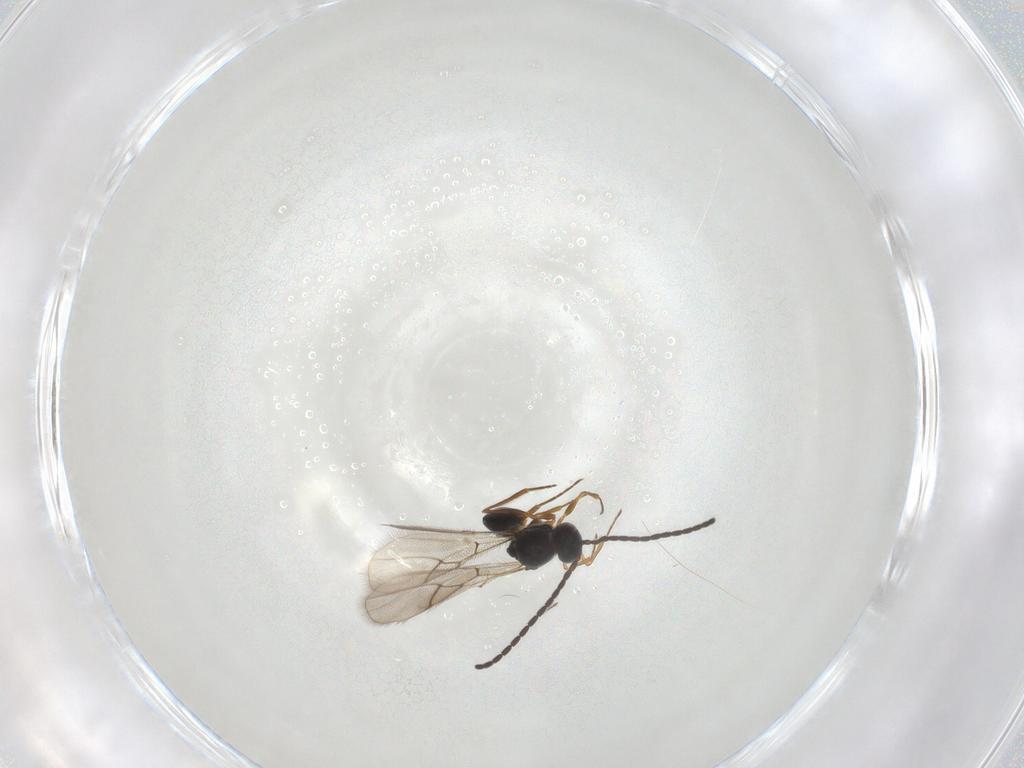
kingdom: Animalia
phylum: Arthropoda
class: Insecta
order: Hymenoptera
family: Figitidae
